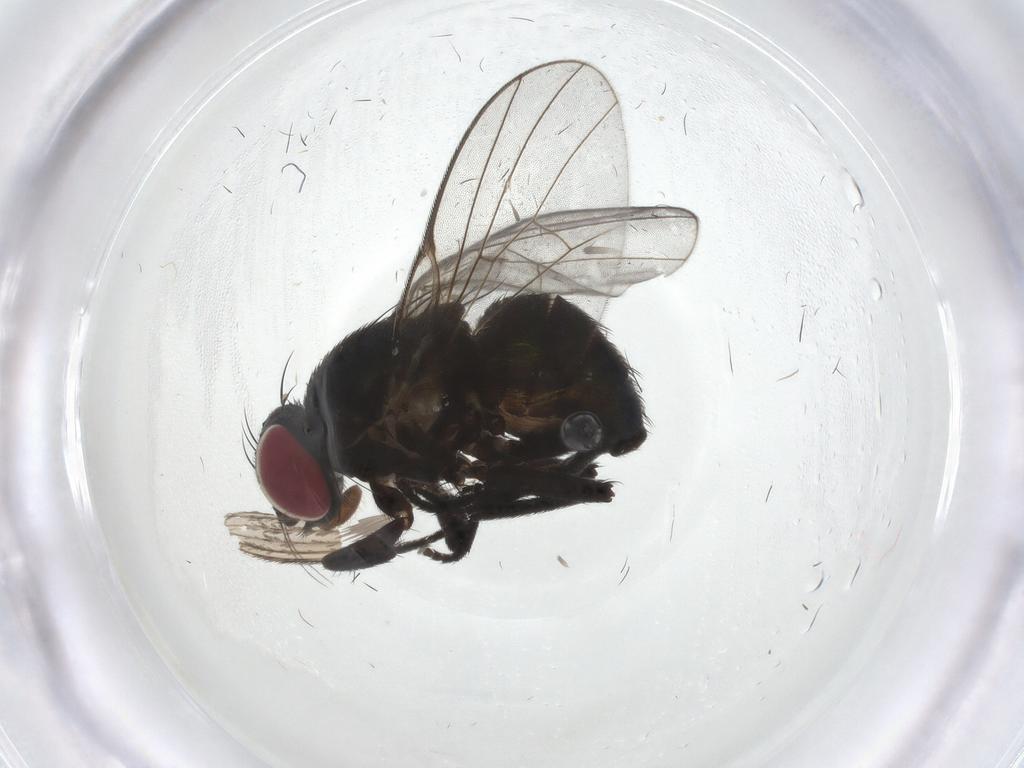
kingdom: Animalia
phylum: Arthropoda
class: Insecta
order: Diptera
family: Agromyzidae
